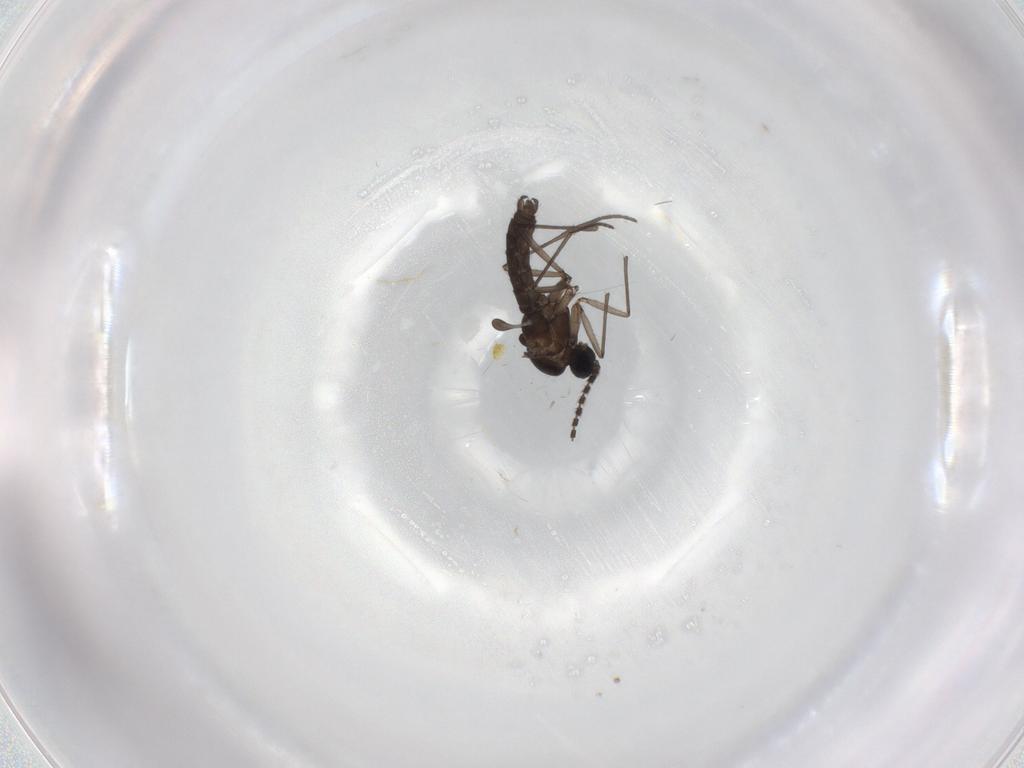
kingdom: Animalia
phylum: Arthropoda
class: Insecta
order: Diptera
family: Sciaridae
